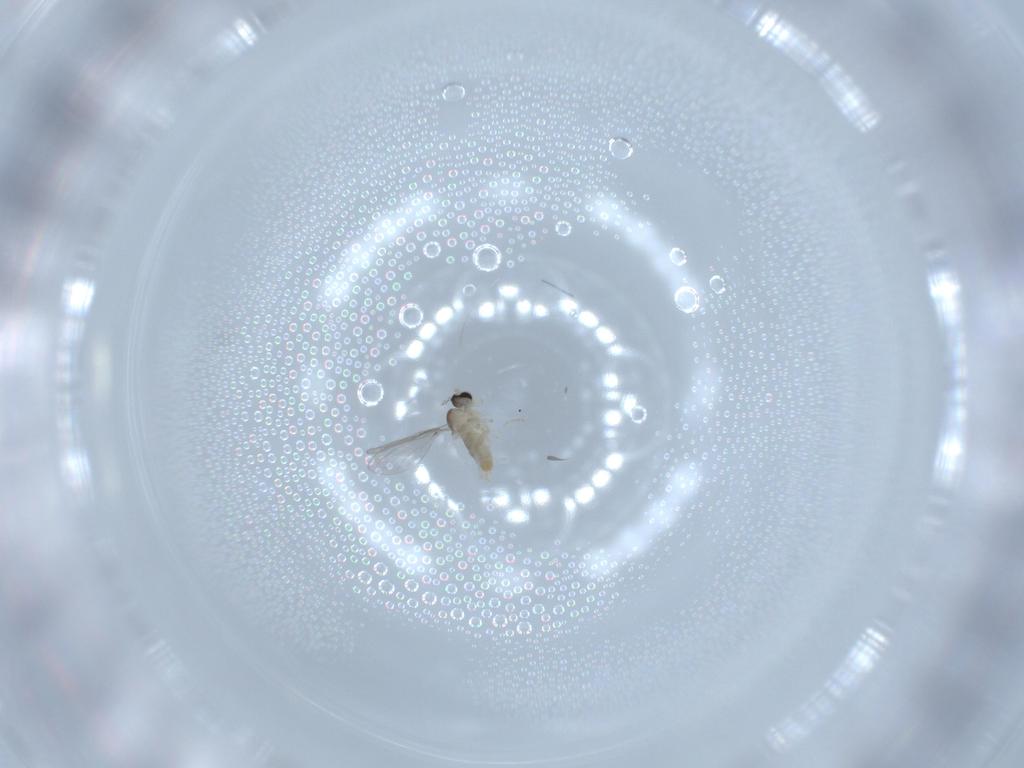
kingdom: Animalia
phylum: Arthropoda
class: Insecta
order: Diptera
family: Cecidomyiidae
